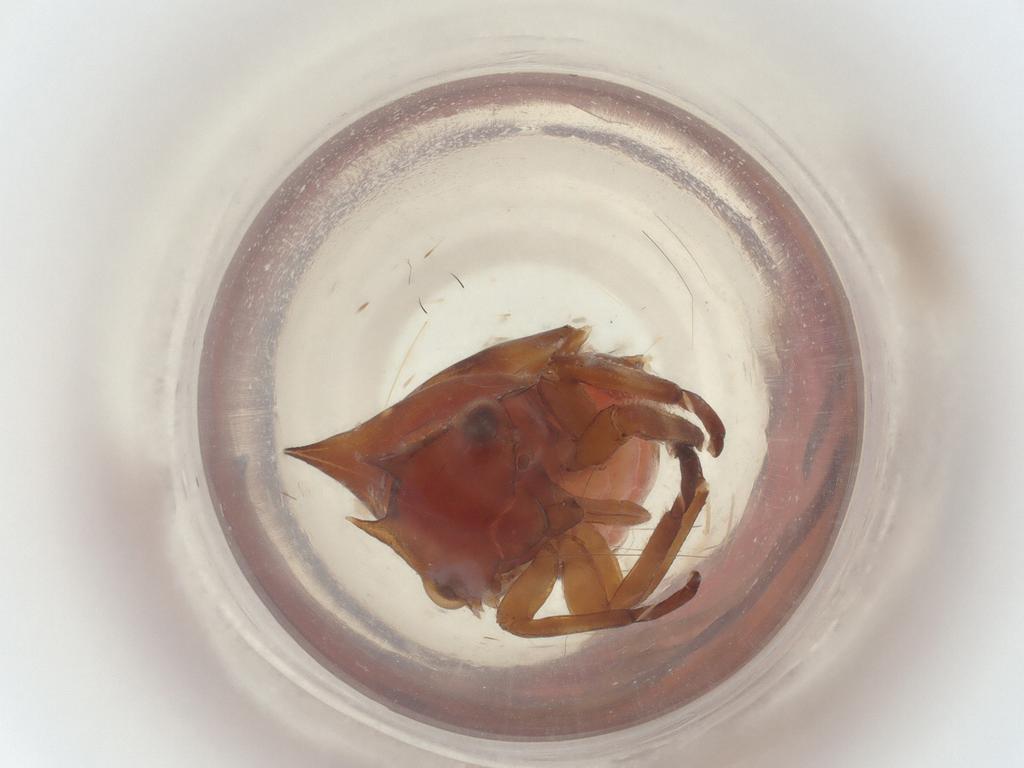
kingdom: Animalia
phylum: Arthropoda
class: Insecta
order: Lepidoptera
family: Noctuidae
